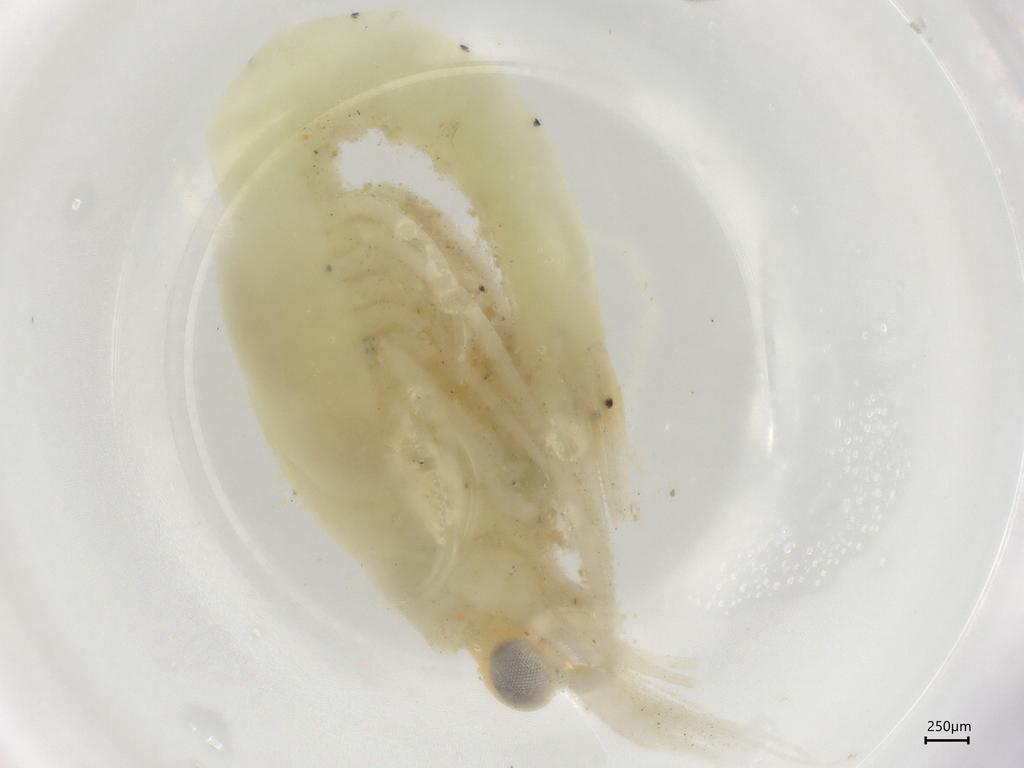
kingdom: Animalia
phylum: Arthropoda
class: Malacostraca
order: Mysida
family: Mysidae
